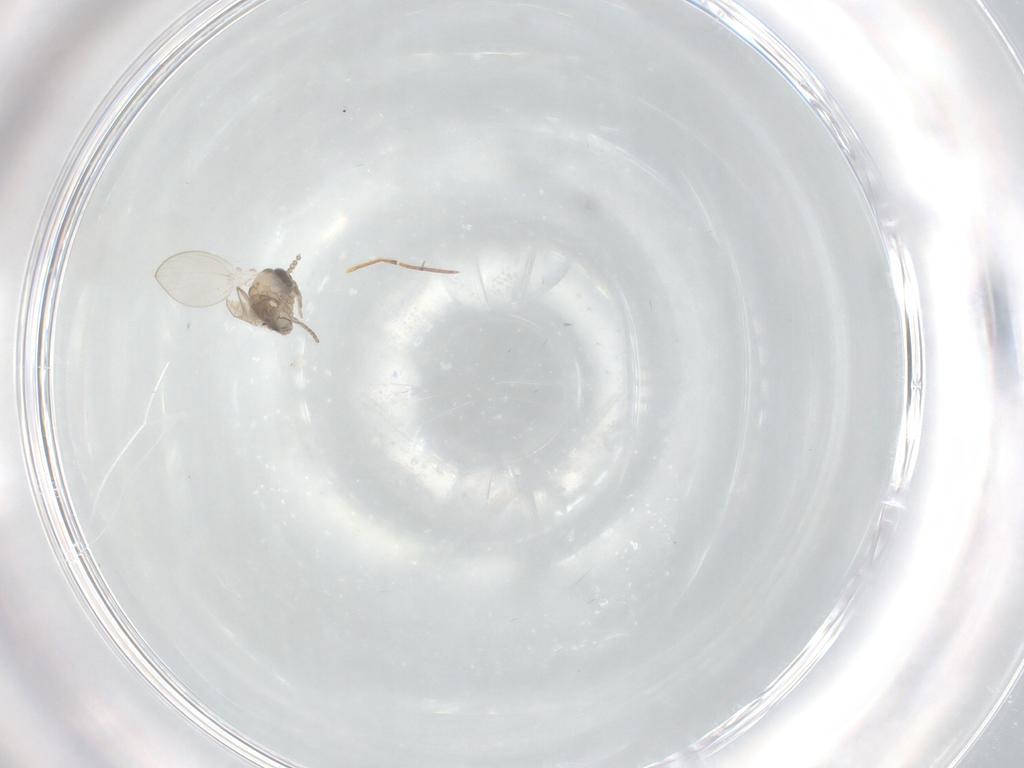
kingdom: Animalia
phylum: Arthropoda
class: Insecta
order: Diptera
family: Psychodidae
